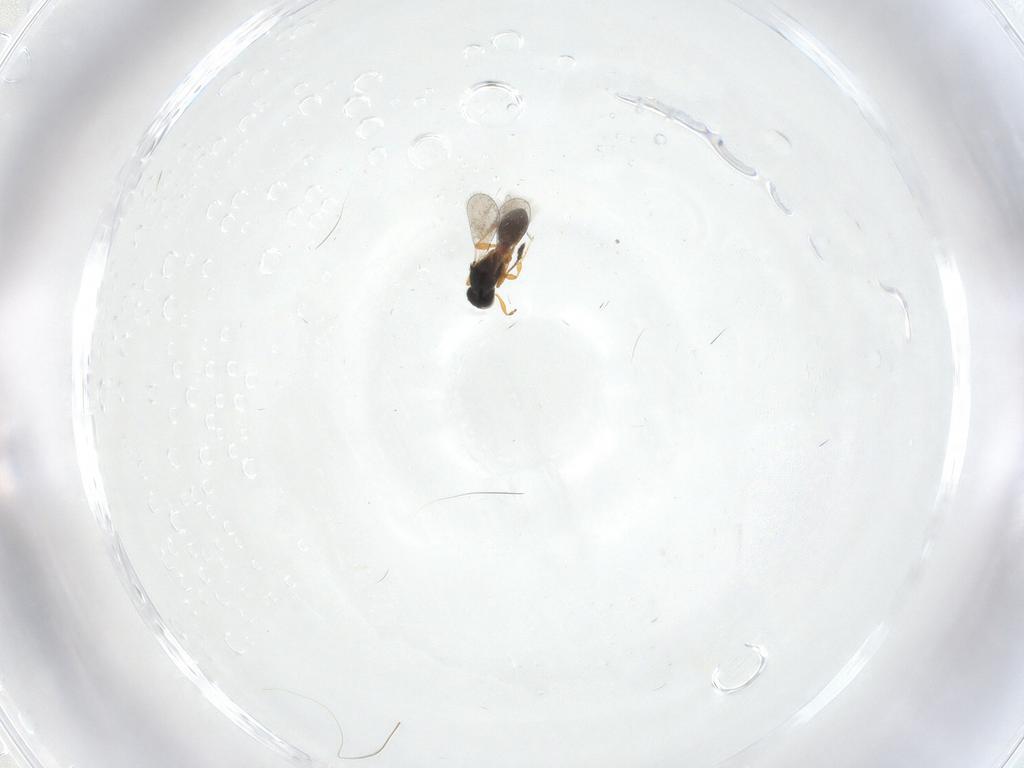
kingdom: Animalia
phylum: Arthropoda
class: Insecta
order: Hymenoptera
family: Platygastridae
